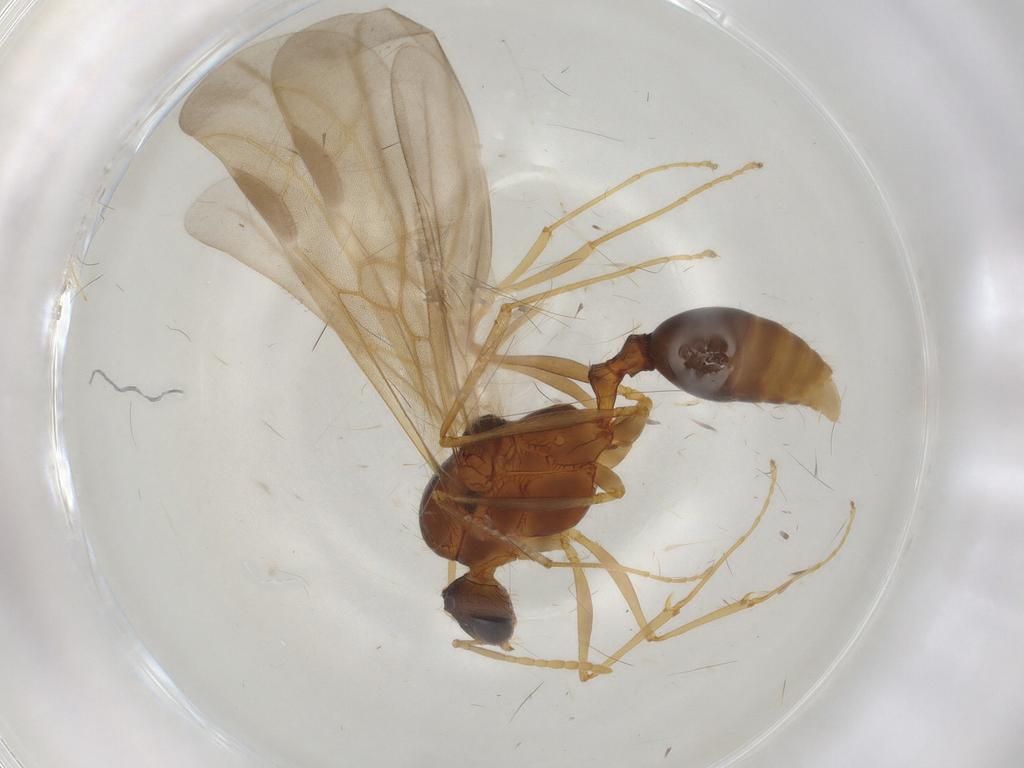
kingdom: Animalia
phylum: Arthropoda
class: Insecta
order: Hymenoptera
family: Formicidae
